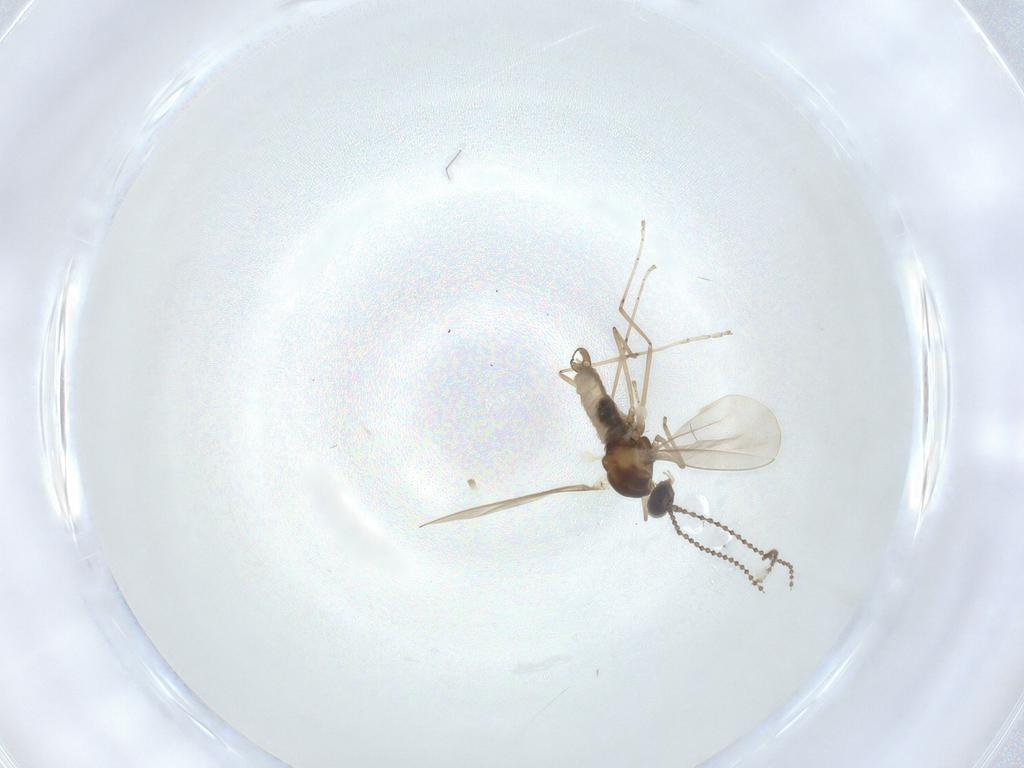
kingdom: Animalia
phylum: Arthropoda
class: Insecta
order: Diptera
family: Cecidomyiidae
